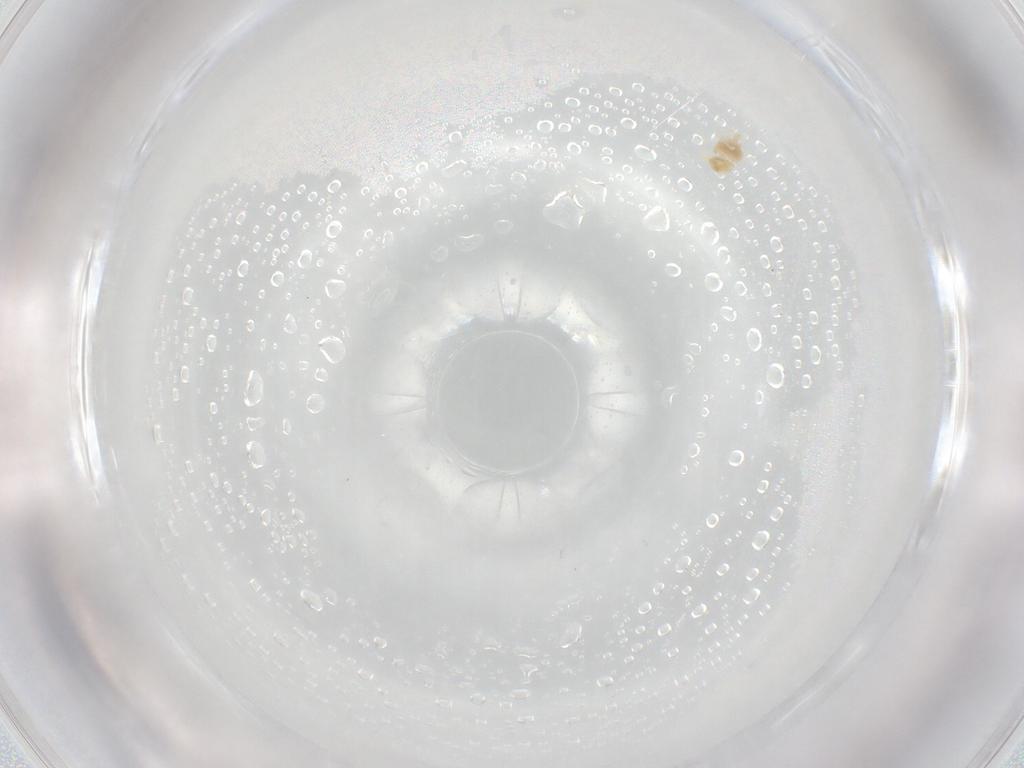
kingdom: Animalia
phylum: Arthropoda
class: Arachnida
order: Trombidiformes
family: Eupodidae
